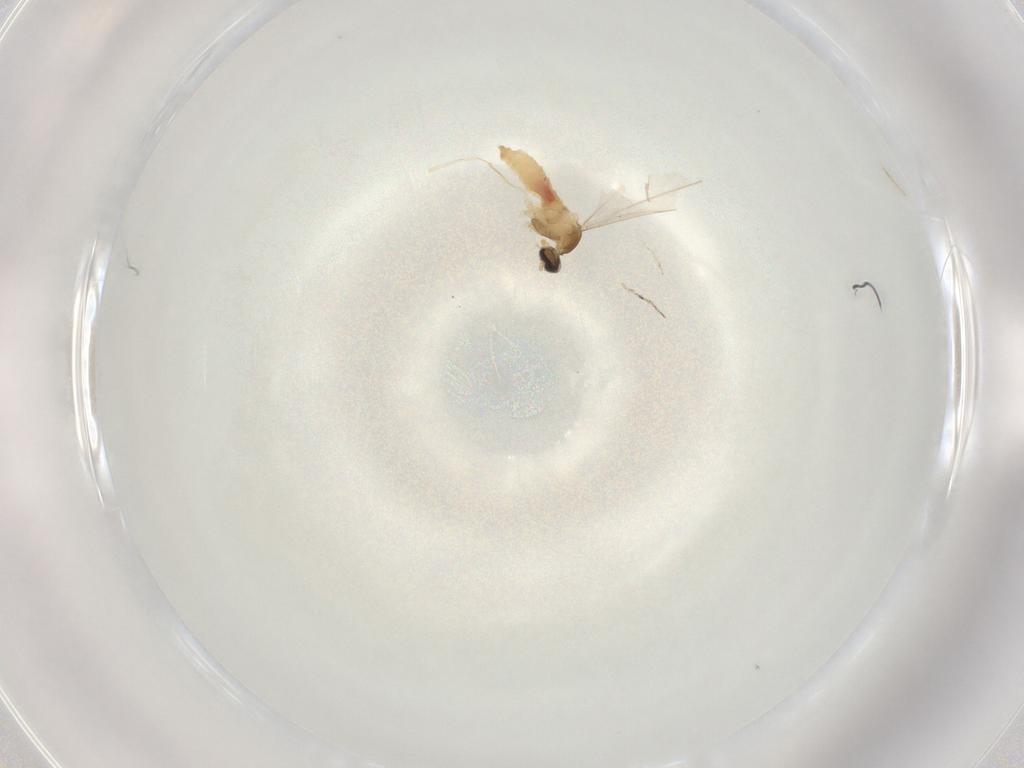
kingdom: Animalia
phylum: Arthropoda
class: Insecta
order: Diptera
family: Cecidomyiidae
